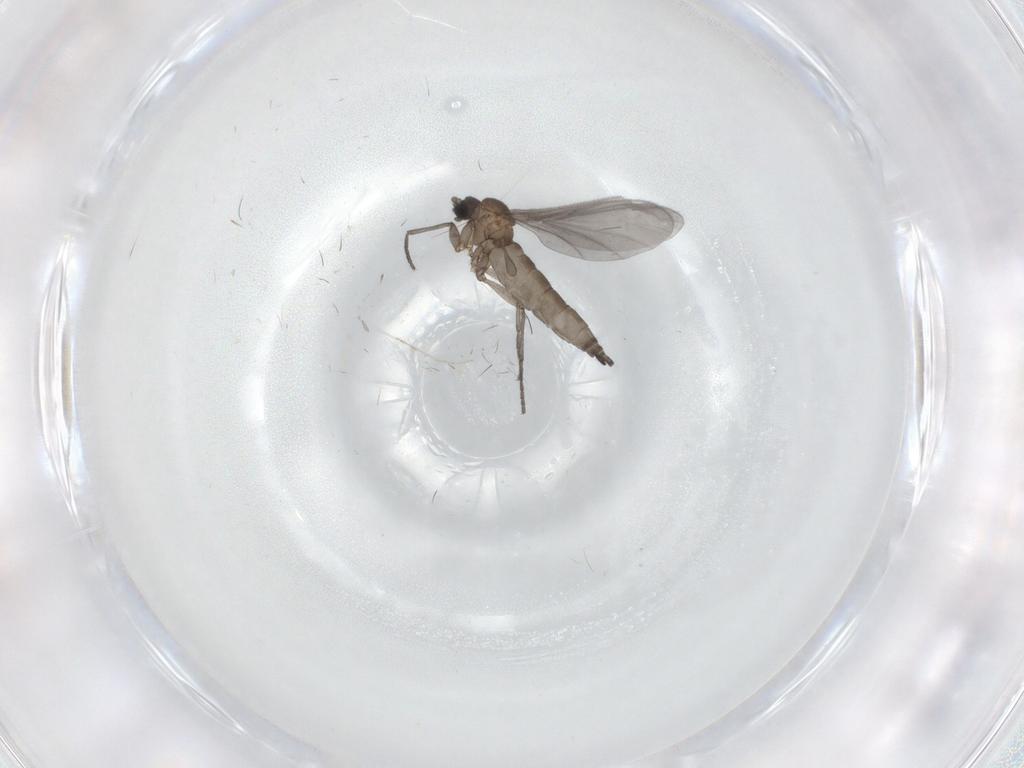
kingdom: Animalia
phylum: Arthropoda
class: Insecta
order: Diptera
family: Sciaridae
